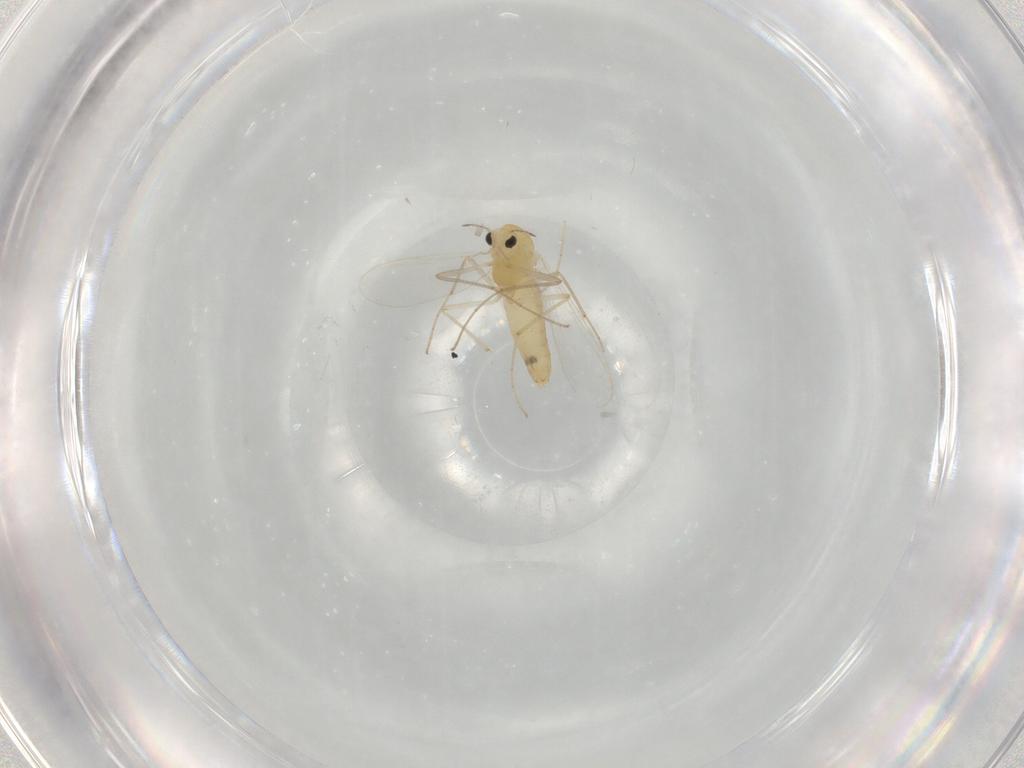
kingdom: Animalia
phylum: Arthropoda
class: Insecta
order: Diptera
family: Chironomidae
